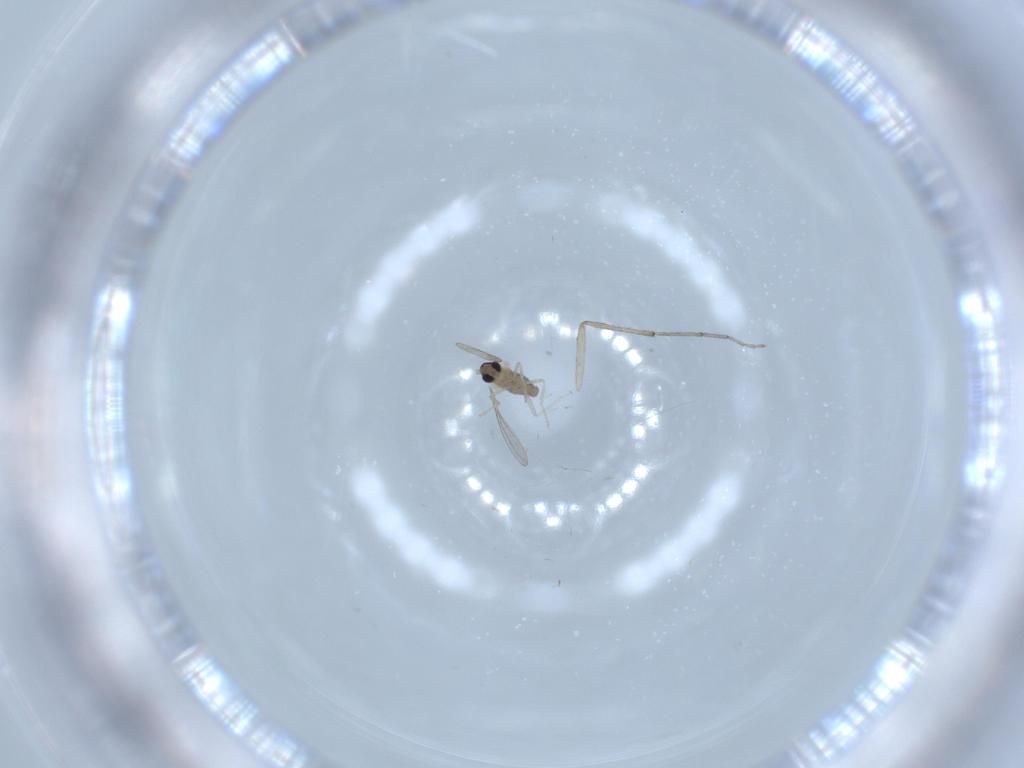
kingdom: Animalia
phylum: Arthropoda
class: Insecta
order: Diptera
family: Cecidomyiidae
